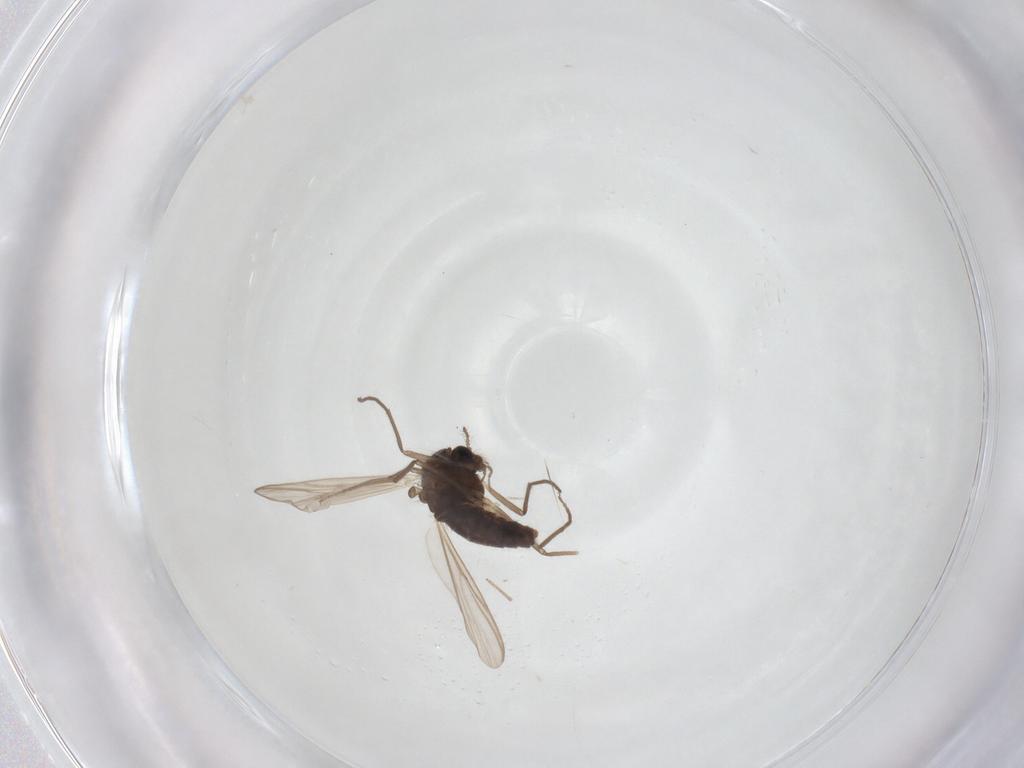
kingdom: Animalia
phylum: Arthropoda
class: Insecta
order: Diptera
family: Chironomidae
